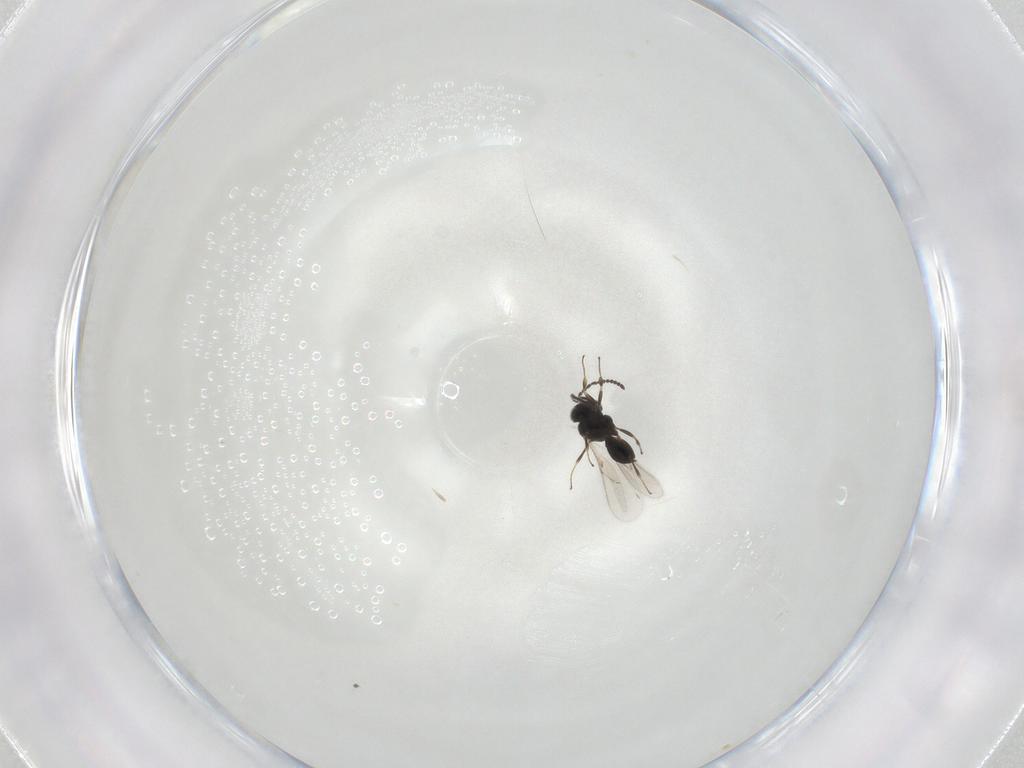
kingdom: Animalia
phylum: Arthropoda
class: Insecta
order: Hymenoptera
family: Scelionidae
